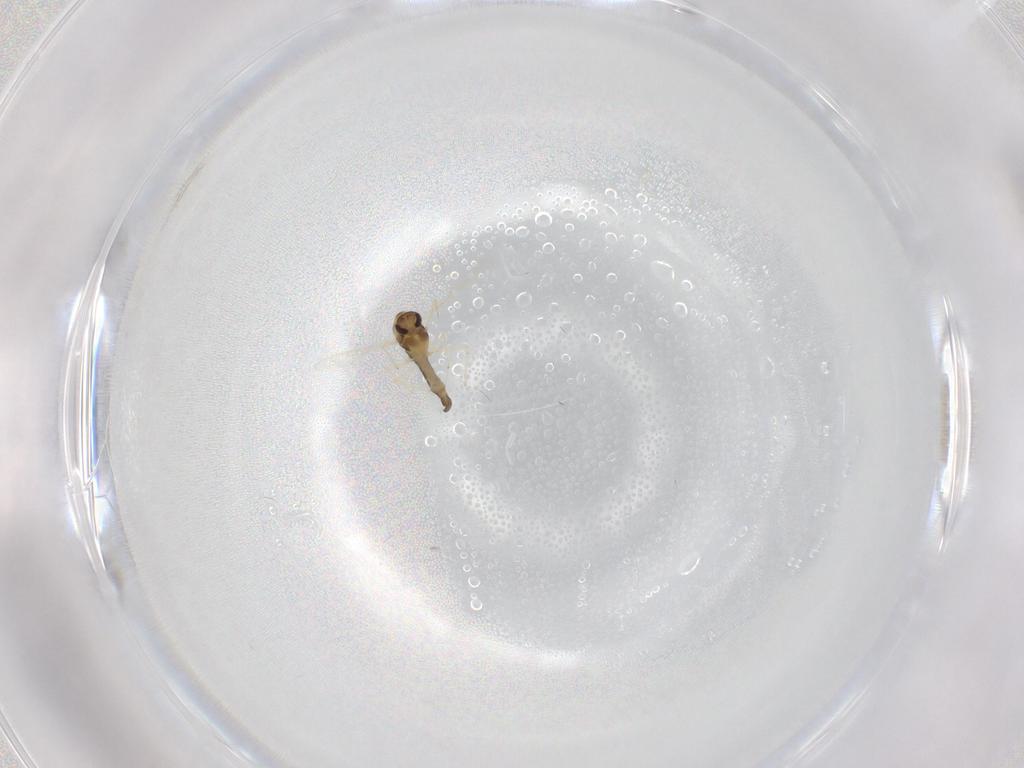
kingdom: Animalia
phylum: Arthropoda
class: Insecta
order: Diptera
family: Chironomidae
